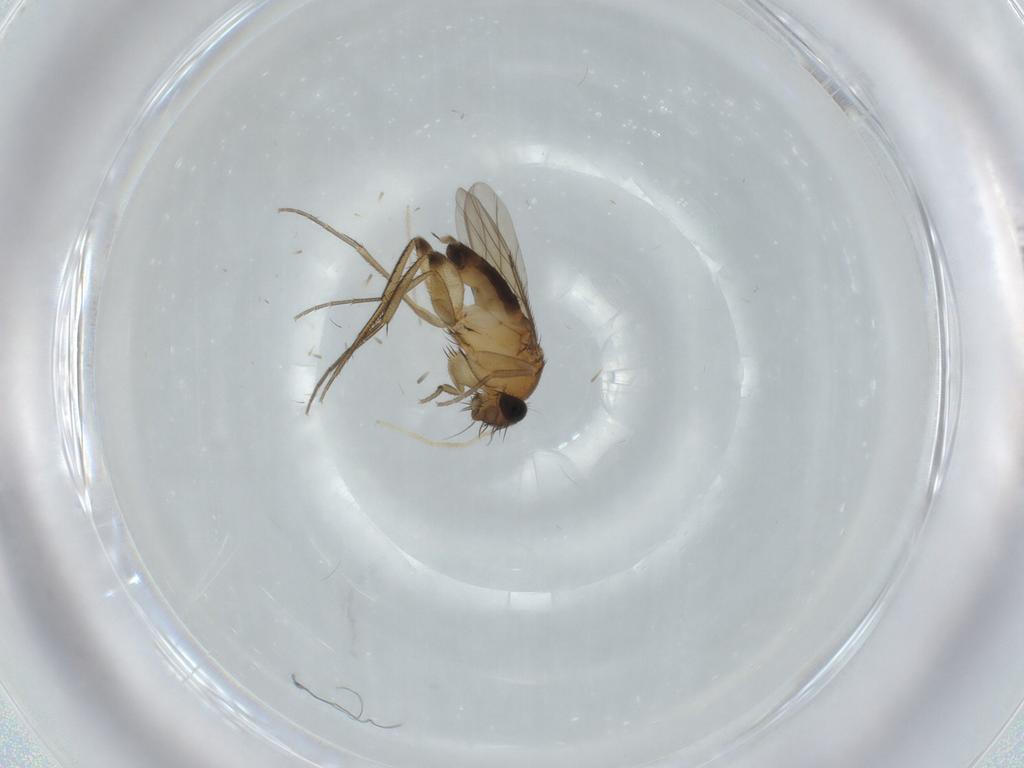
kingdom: Animalia
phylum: Arthropoda
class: Insecta
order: Diptera
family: Phoridae
